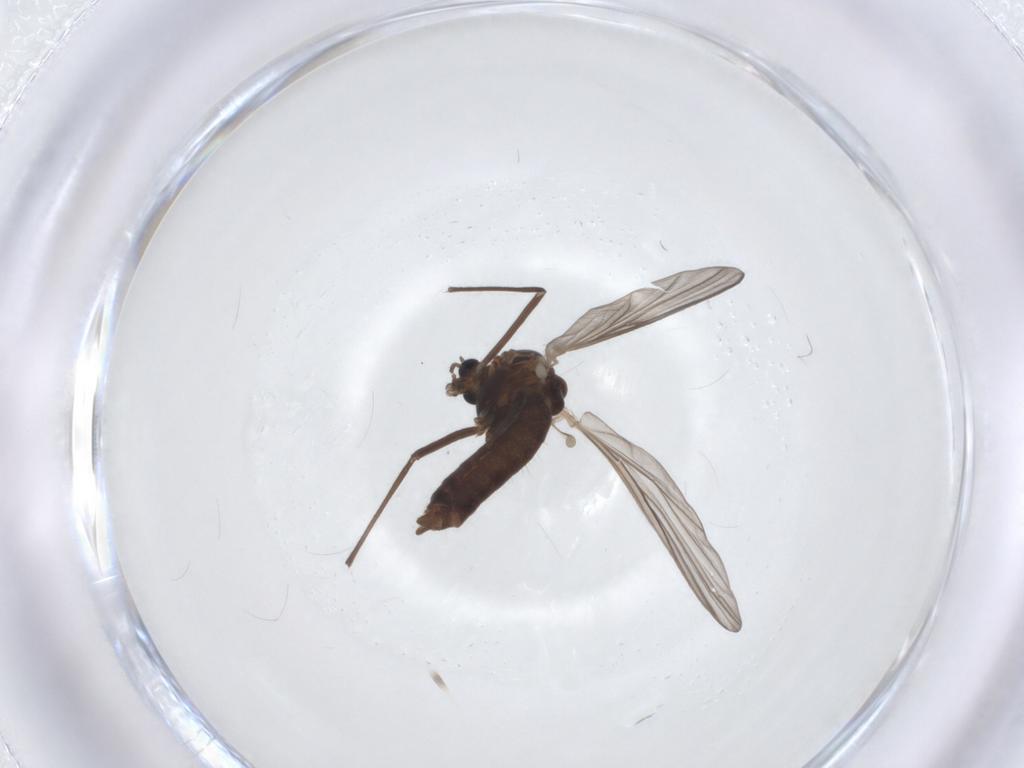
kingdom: Animalia
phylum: Arthropoda
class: Insecta
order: Diptera
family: Chironomidae
